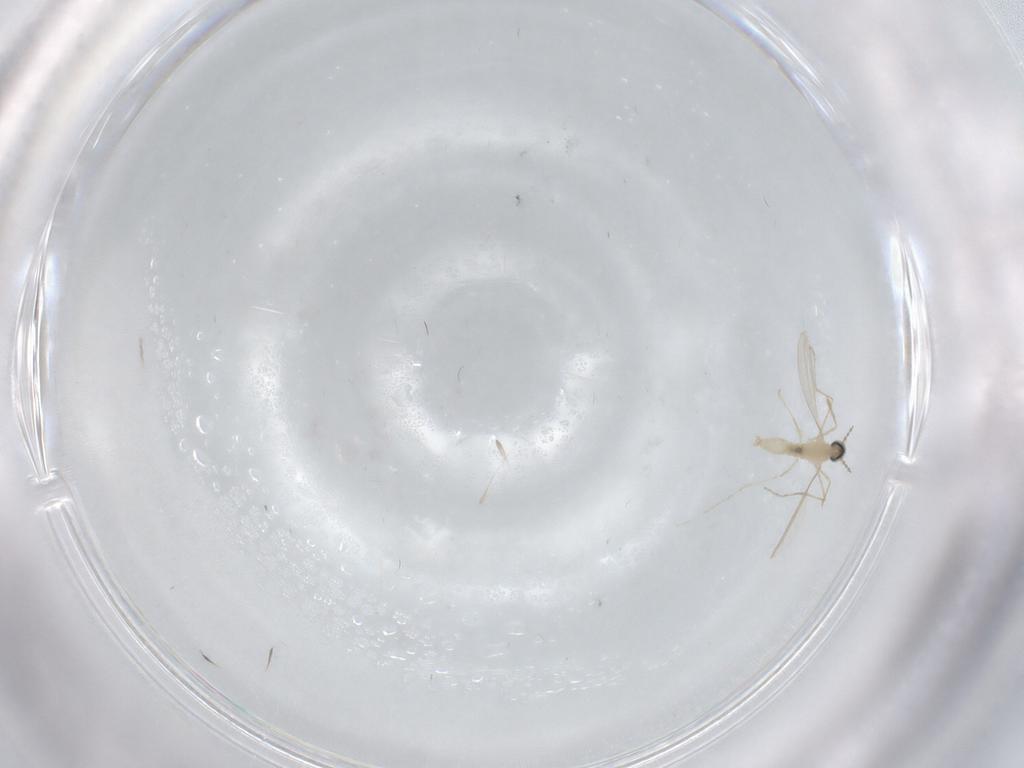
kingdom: Animalia
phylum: Arthropoda
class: Insecta
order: Diptera
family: Cecidomyiidae
